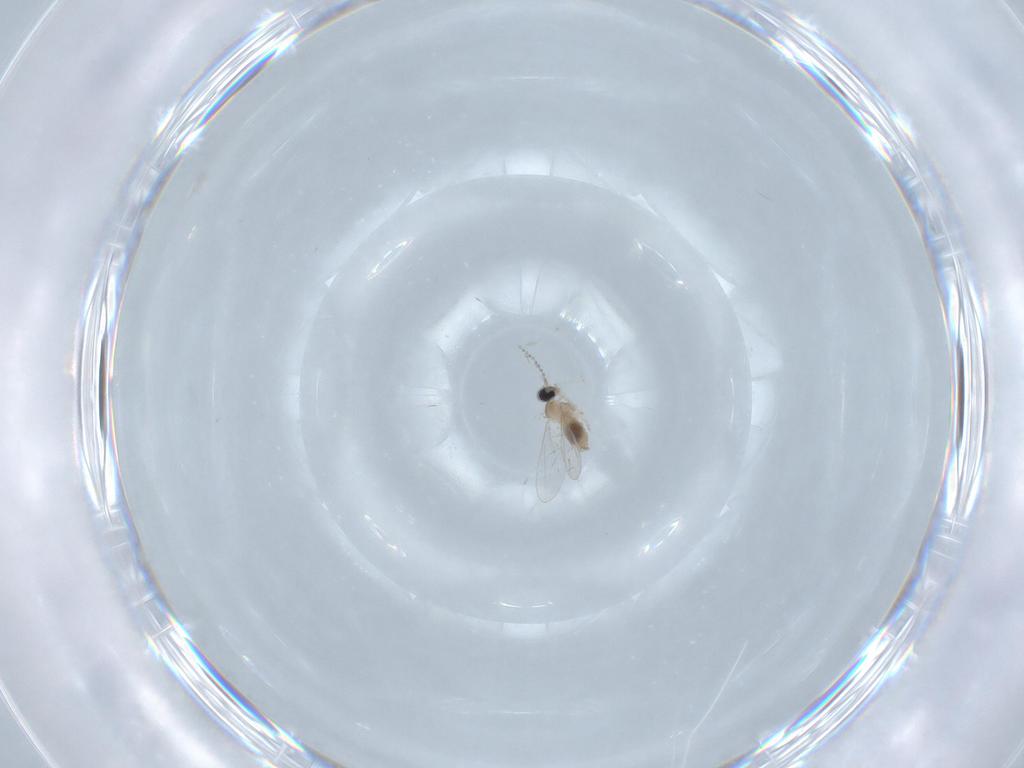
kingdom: Animalia
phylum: Arthropoda
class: Insecta
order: Diptera
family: Cecidomyiidae
